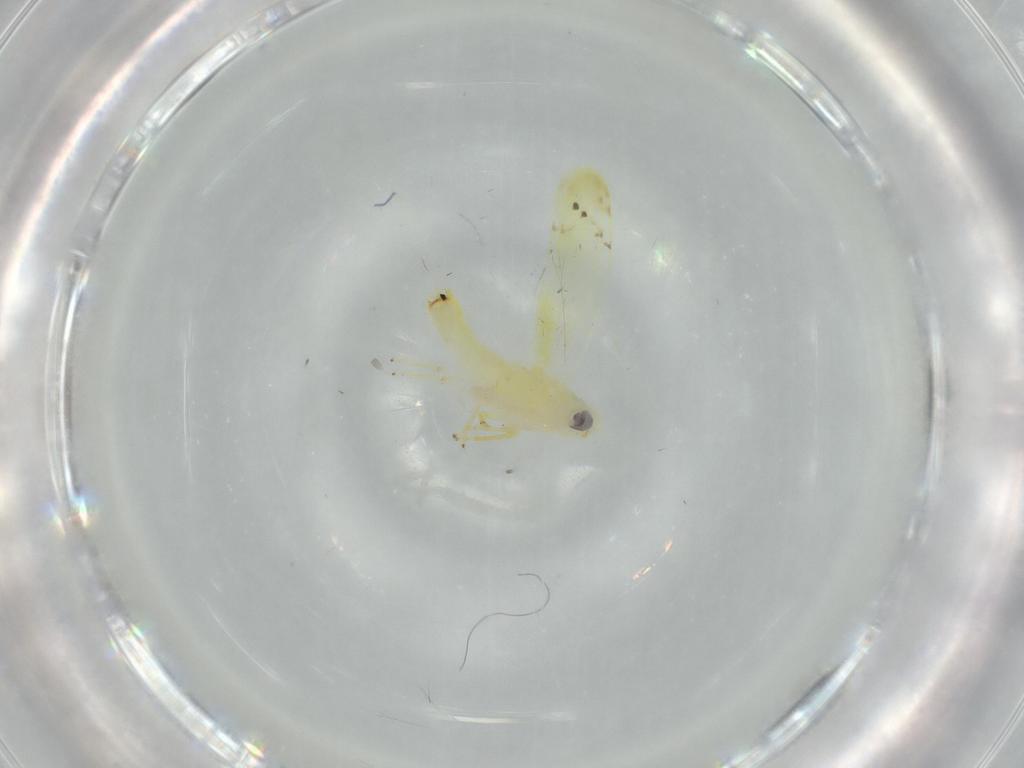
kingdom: Animalia
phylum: Arthropoda
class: Insecta
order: Hemiptera
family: Cicadellidae
